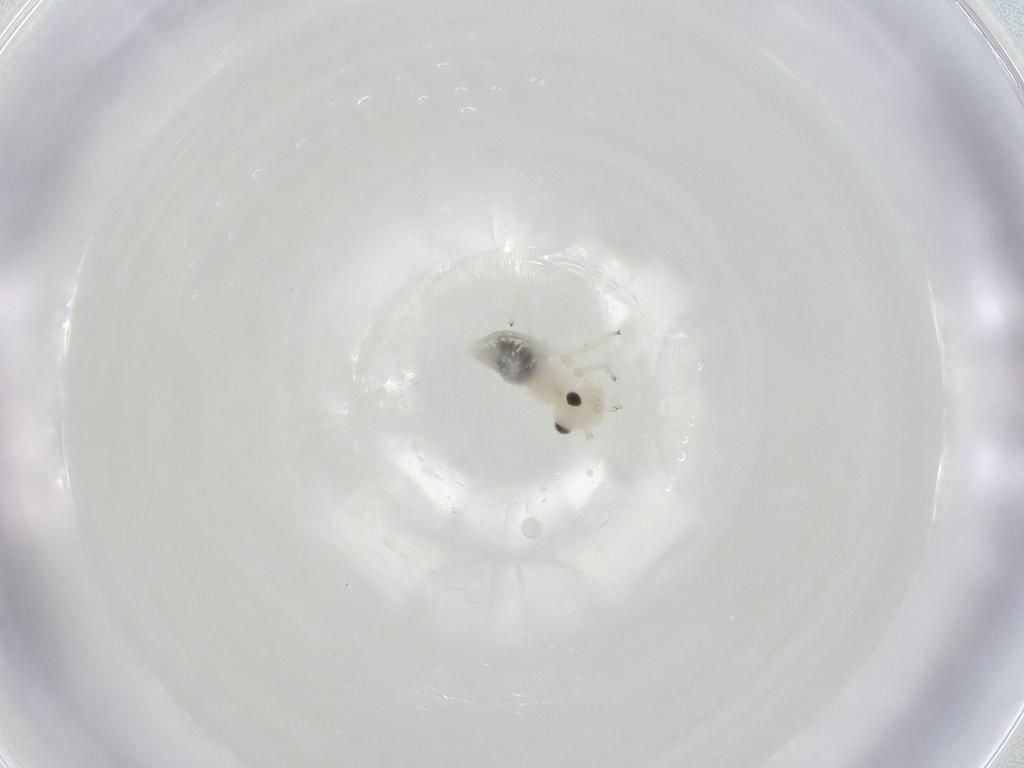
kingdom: Animalia
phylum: Arthropoda
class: Insecta
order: Psocodea
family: Caeciliusidae
